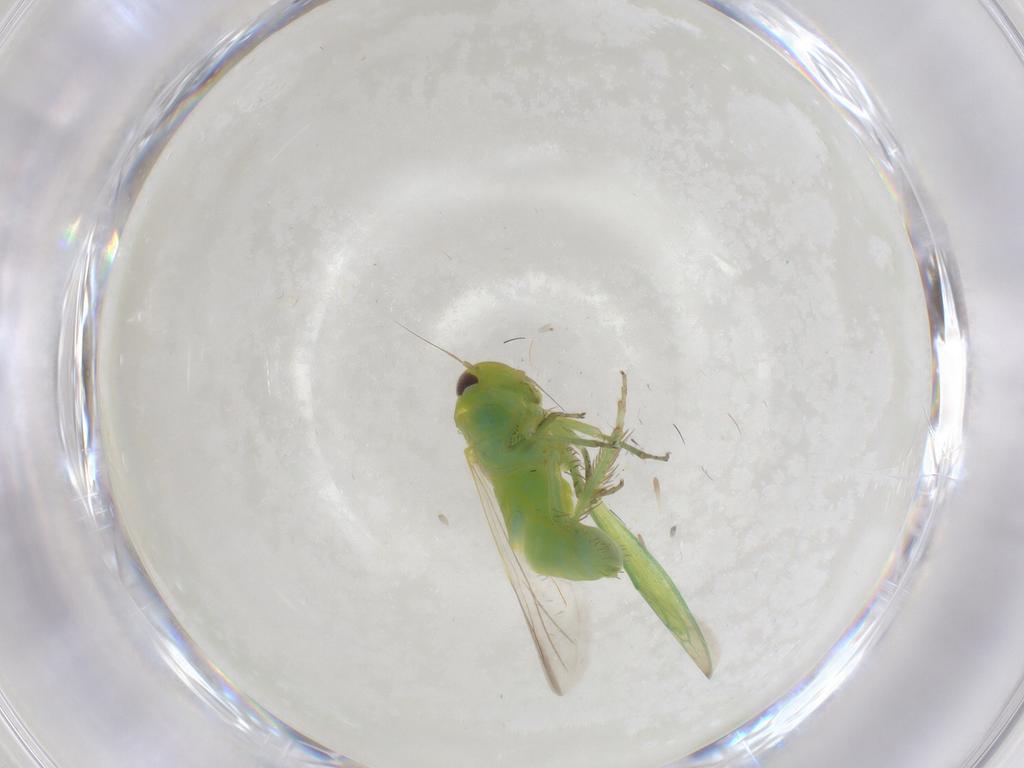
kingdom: Animalia
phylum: Arthropoda
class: Insecta
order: Hemiptera
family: Cicadellidae
